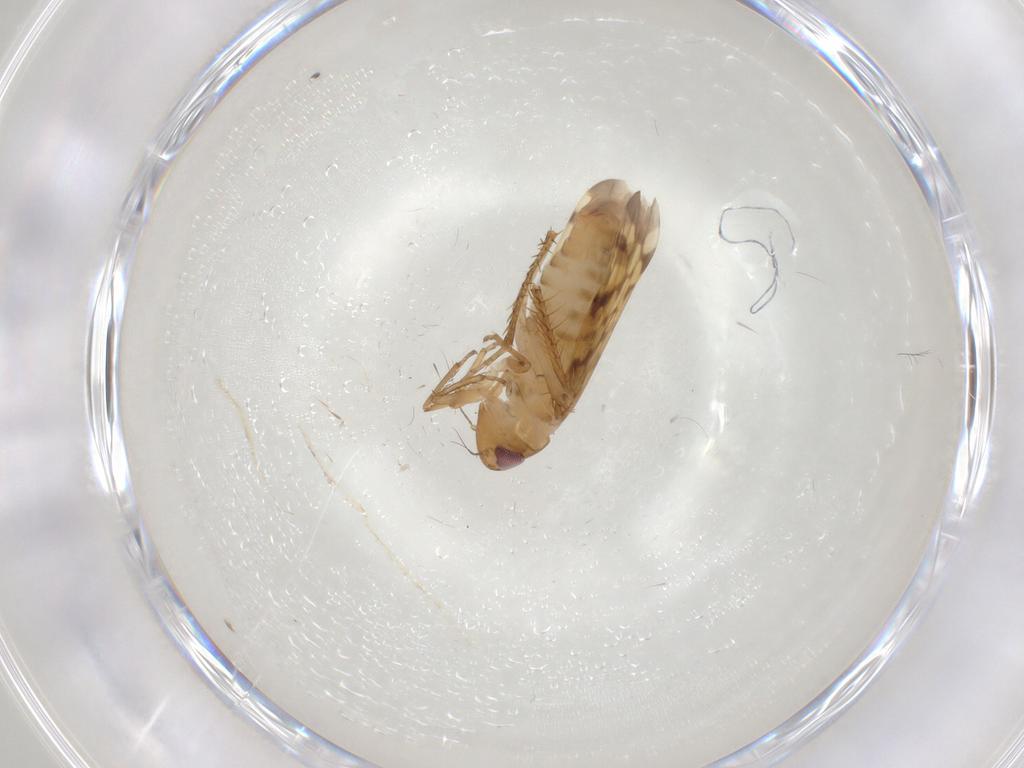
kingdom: Animalia
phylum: Arthropoda
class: Insecta
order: Hemiptera
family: Cicadellidae
